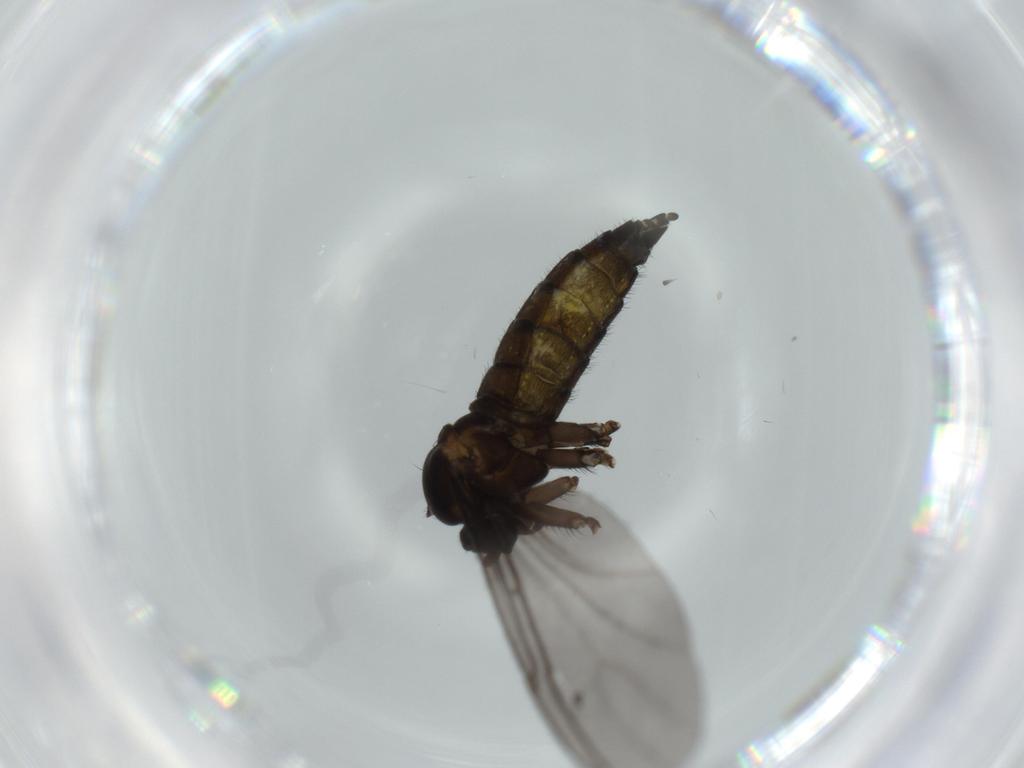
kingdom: Animalia
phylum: Arthropoda
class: Insecta
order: Diptera
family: Sciaridae
